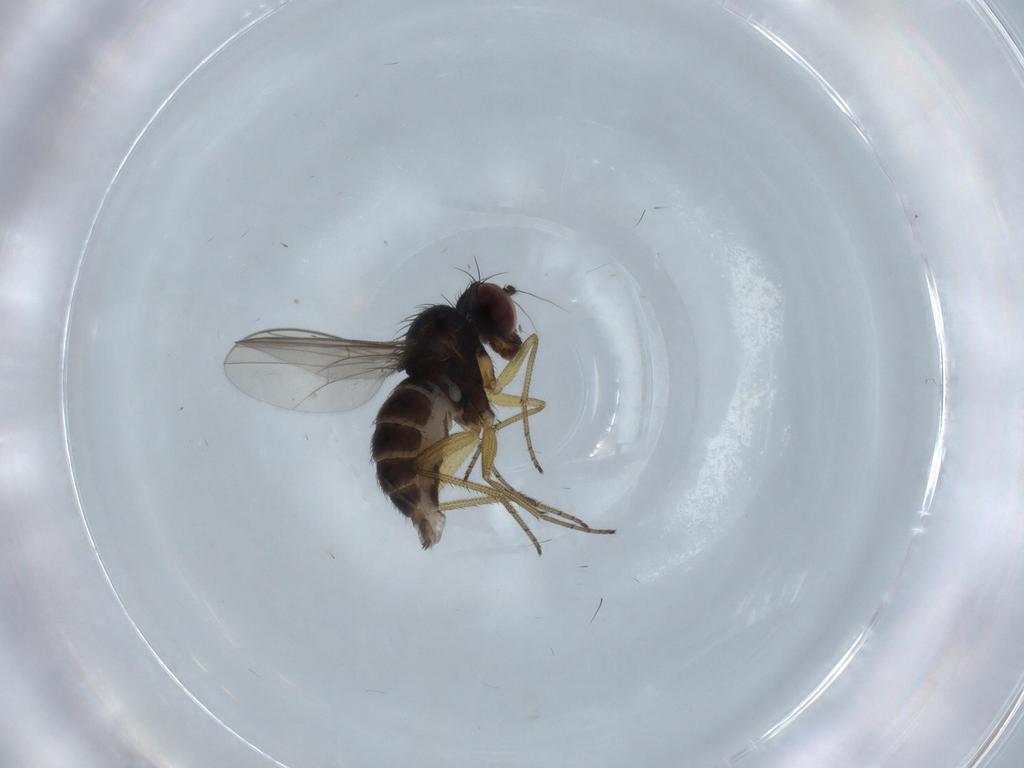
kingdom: Animalia
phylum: Arthropoda
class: Insecta
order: Diptera
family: Dolichopodidae
